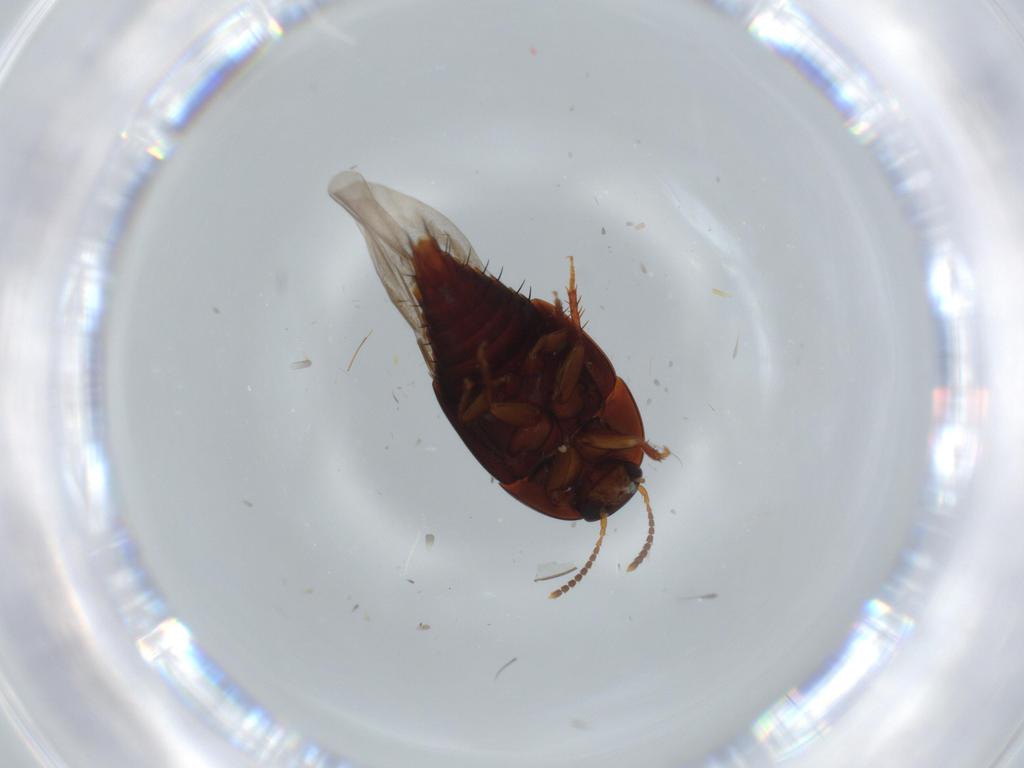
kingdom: Animalia
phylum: Arthropoda
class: Insecta
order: Coleoptera
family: Staphylinidae
